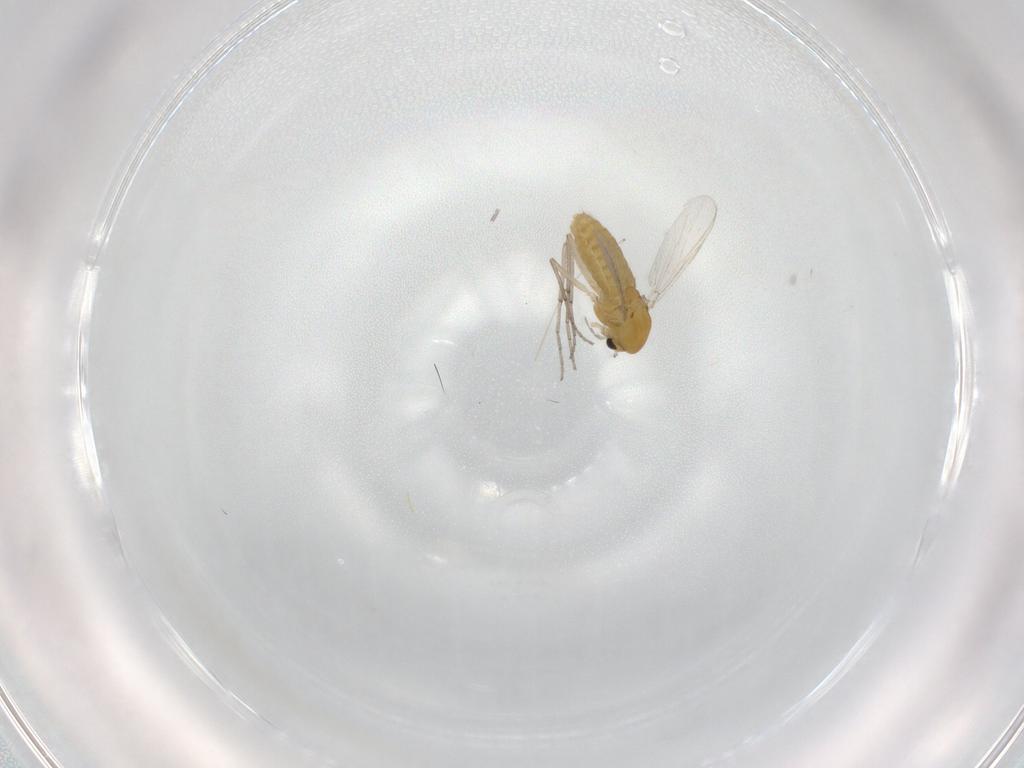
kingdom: Animalia
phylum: Arthropoda
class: Insecta
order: Diptera
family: Chironomidae
